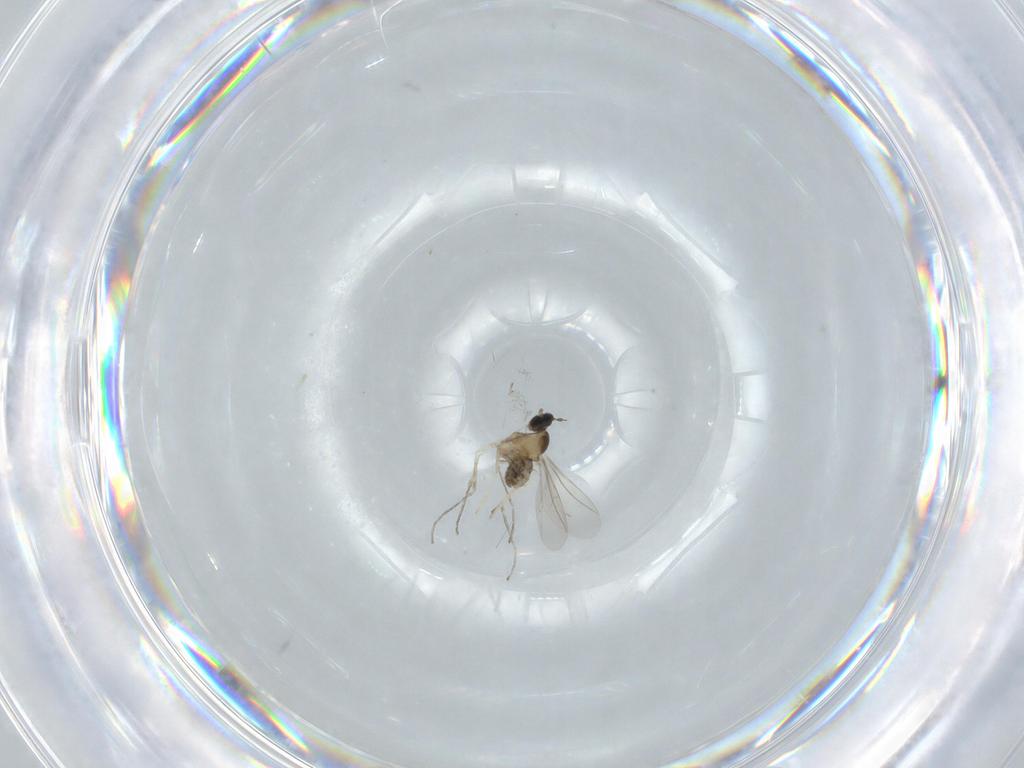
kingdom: Animalia
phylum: Arthropoda
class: Insecta
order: Diptera
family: Cecidomyiidae
